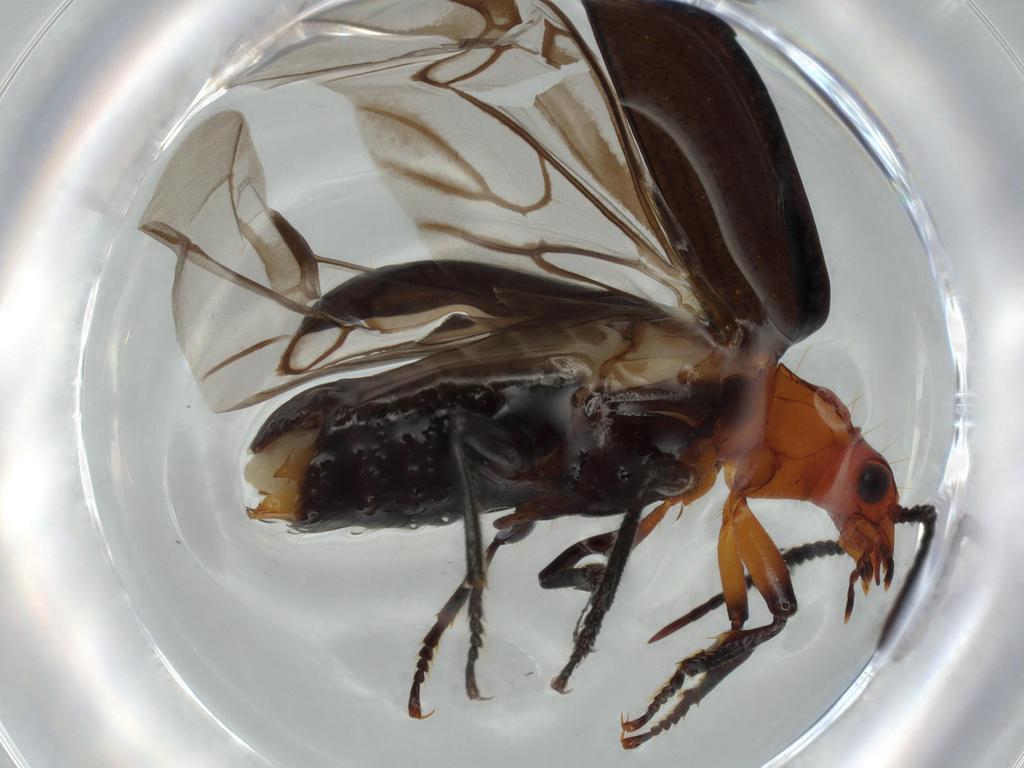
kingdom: Animalia
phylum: Arthropoda
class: Insecta
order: Coleoptera
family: Carabidae
